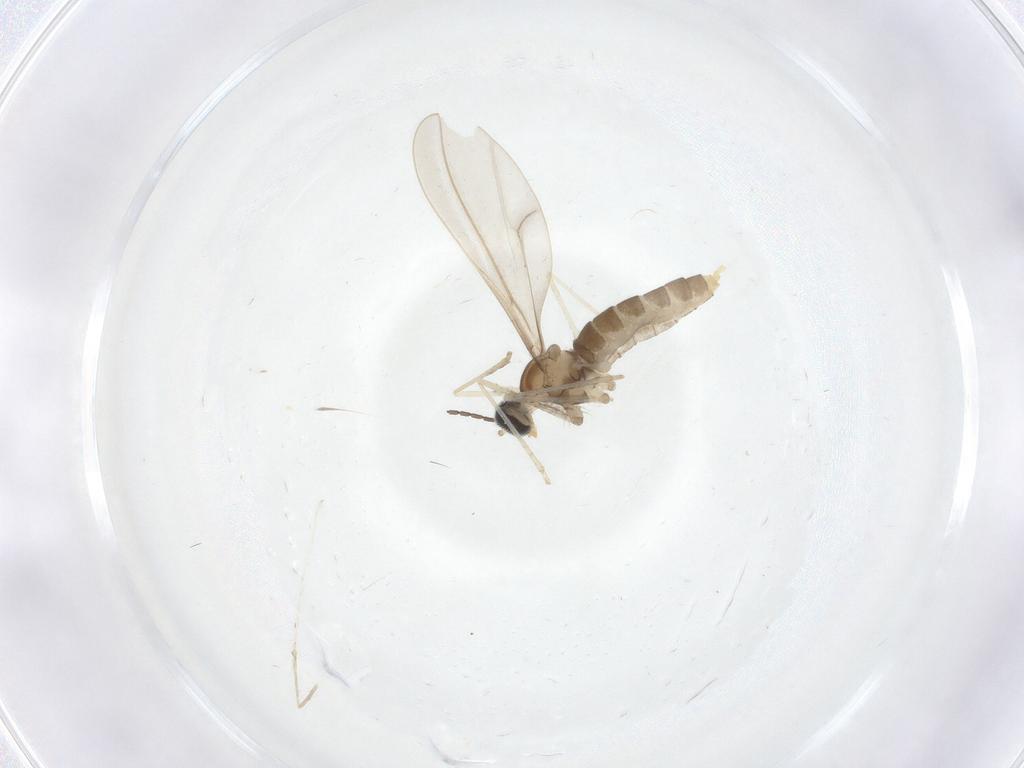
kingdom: Animalia
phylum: Arthropoda
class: Insecta
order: Diptera
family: Cecidomyiidae
